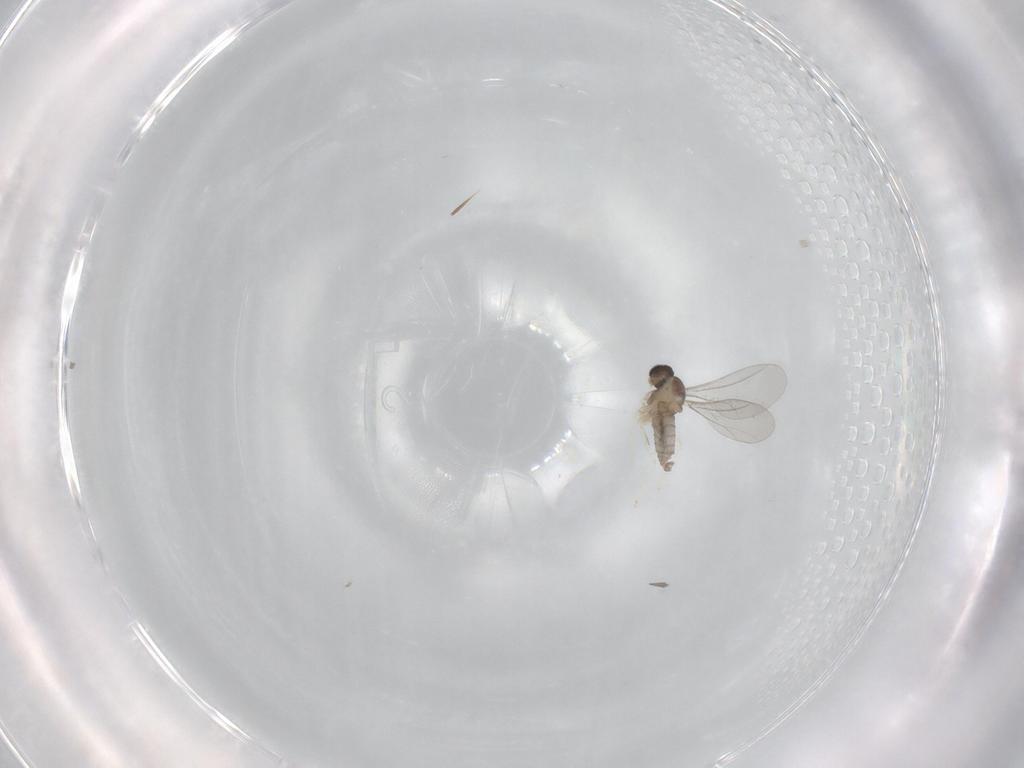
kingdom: Animalia
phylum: Arthropoda
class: Insecta
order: Diptera
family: Cecidomyiidae
